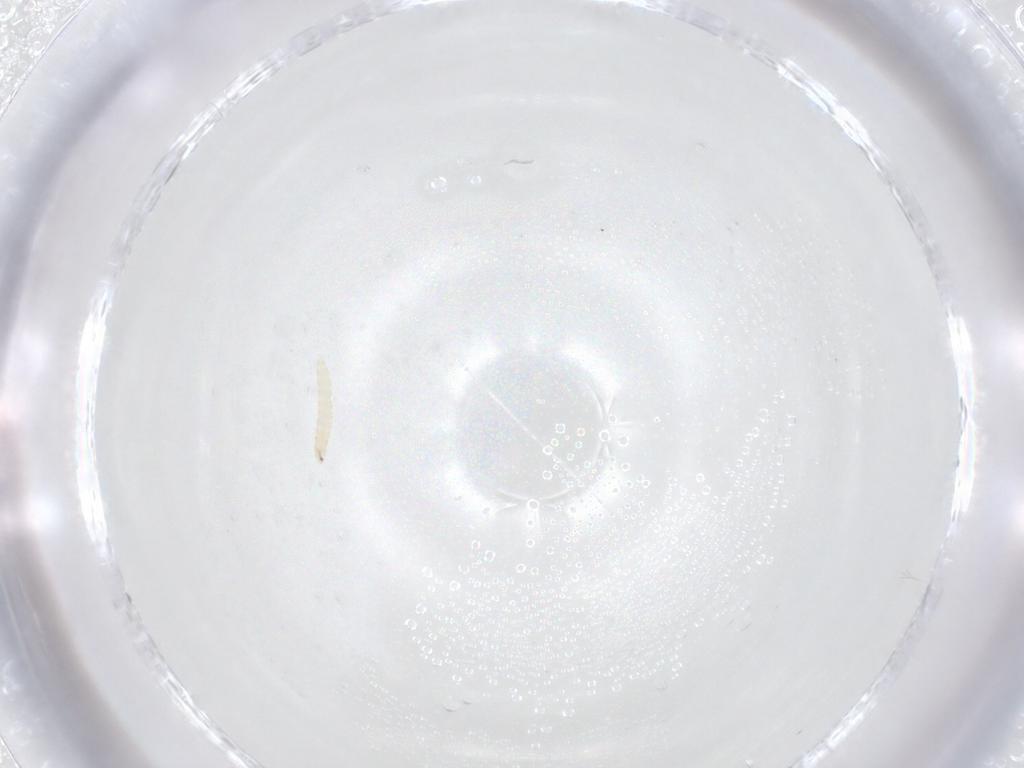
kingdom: Animalia
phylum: Arthropoda
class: Insecta
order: Diptera
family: Tachinidae
